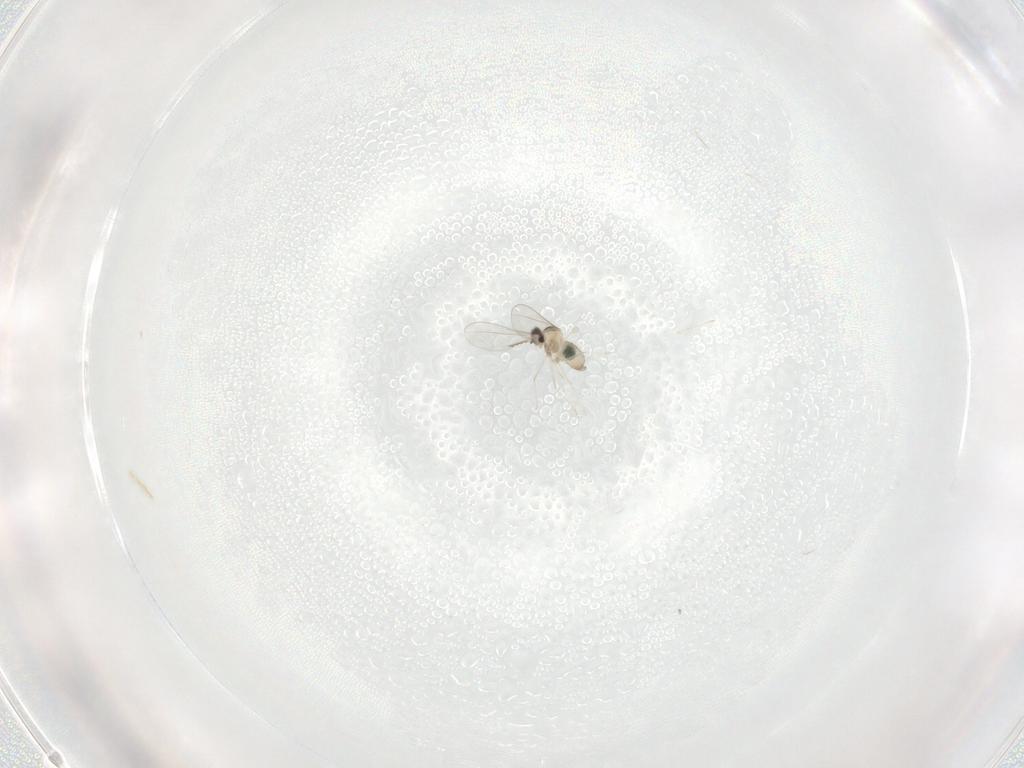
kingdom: Animalia
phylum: Arthropoda
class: Insecta
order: Diptera
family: Cecidomyiidae
